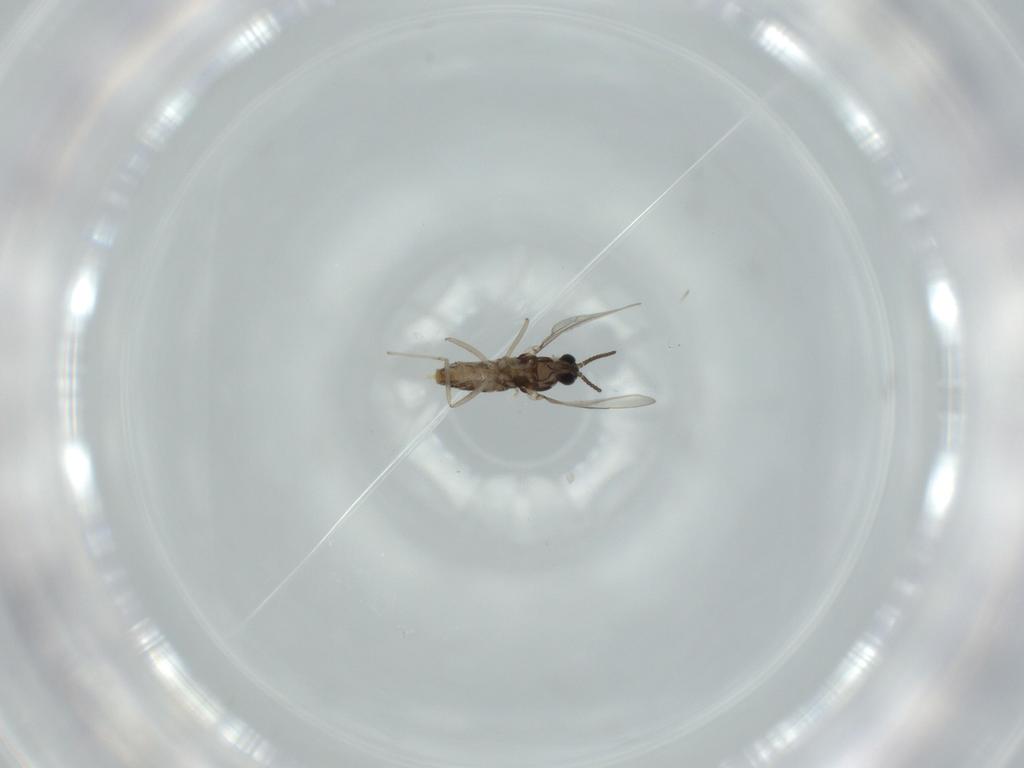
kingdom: Animalia
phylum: Arthropoda
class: Insecta
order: Diptera
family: Cecidomyiidae
